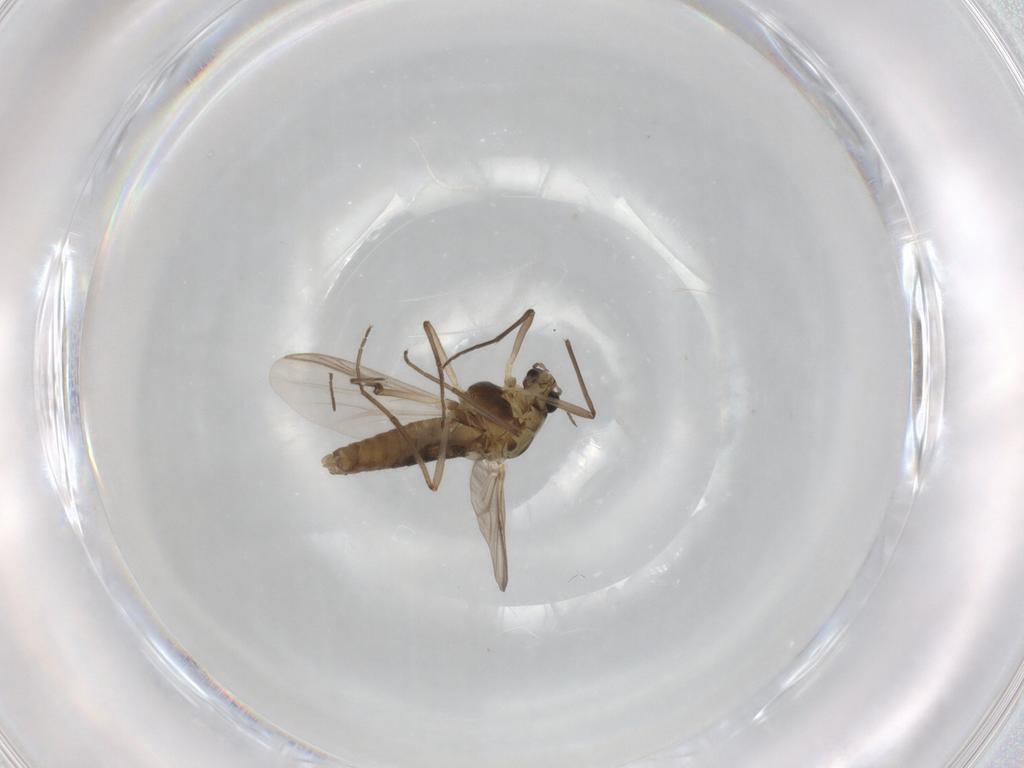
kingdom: Animalia
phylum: Arthropoda
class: Insecta
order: Diptera
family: Chironomidae
